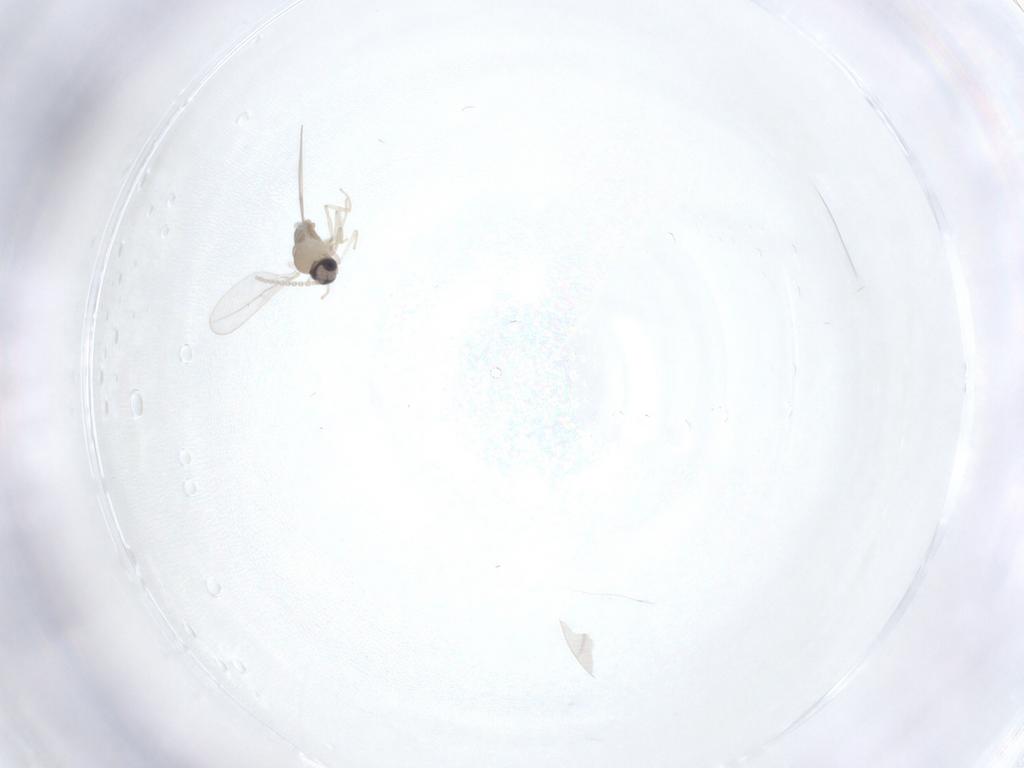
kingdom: Animalia
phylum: Arthropoda
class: Insecta
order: Diptera
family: Cecidomyiidae
